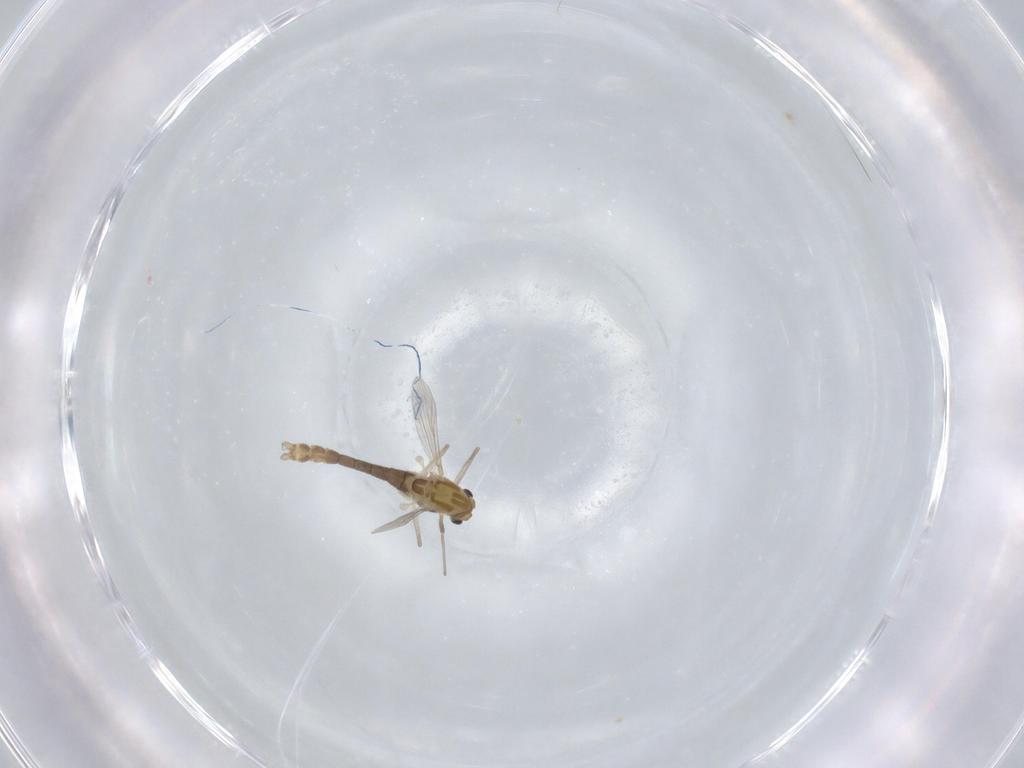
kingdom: Animalia
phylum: Arthropoda
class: Insecta
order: Diptera
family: Chironomidae
